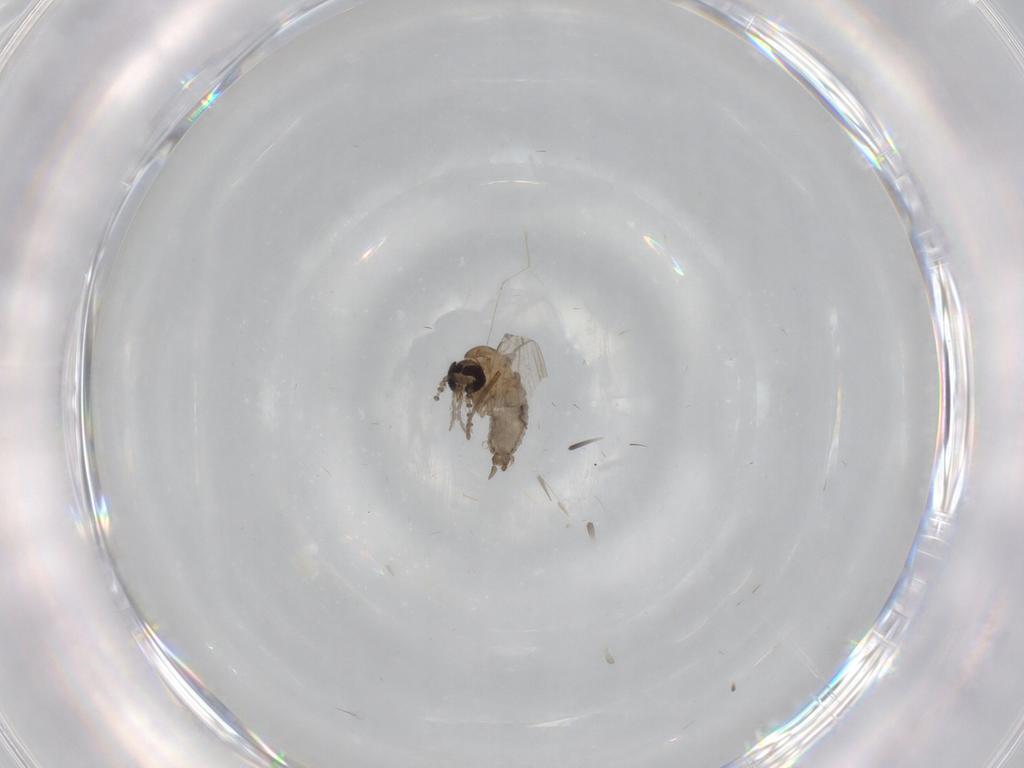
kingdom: Animalia
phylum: Arthropoda
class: Insecta
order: Diptera
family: Psychodidae
